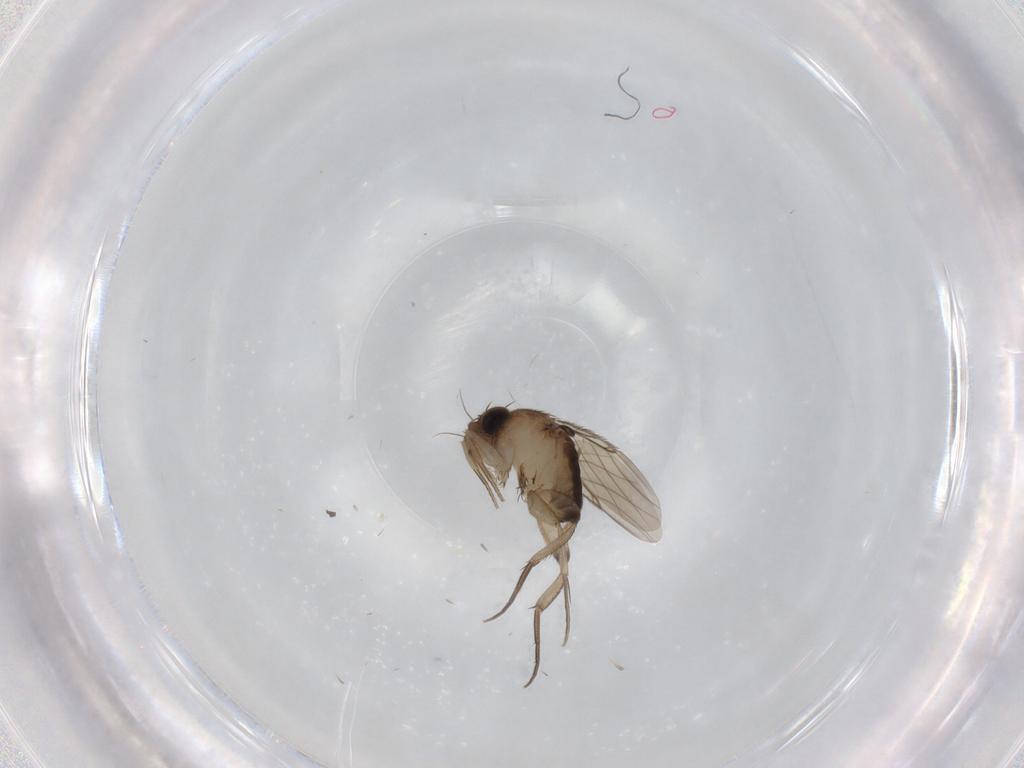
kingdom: Animalia
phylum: Arthropoda
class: Insecta
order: Diptera
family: Phoridae
